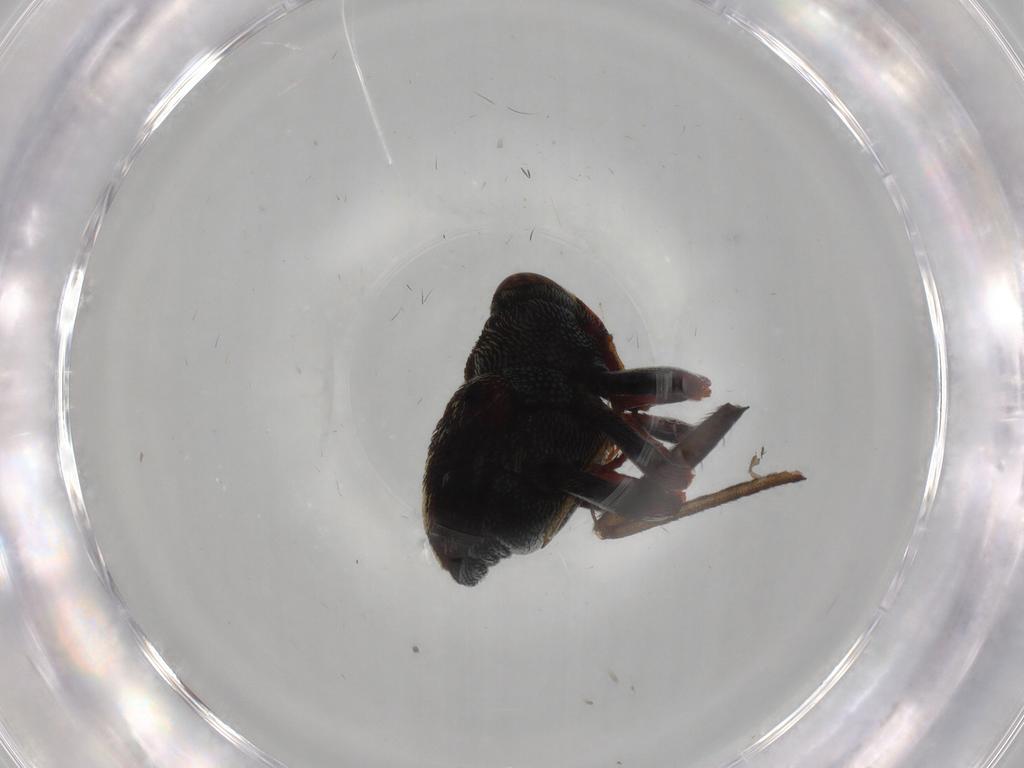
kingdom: Animalia
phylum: Arthropoda
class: Insecta
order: Coleoptera
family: Curculionidae
